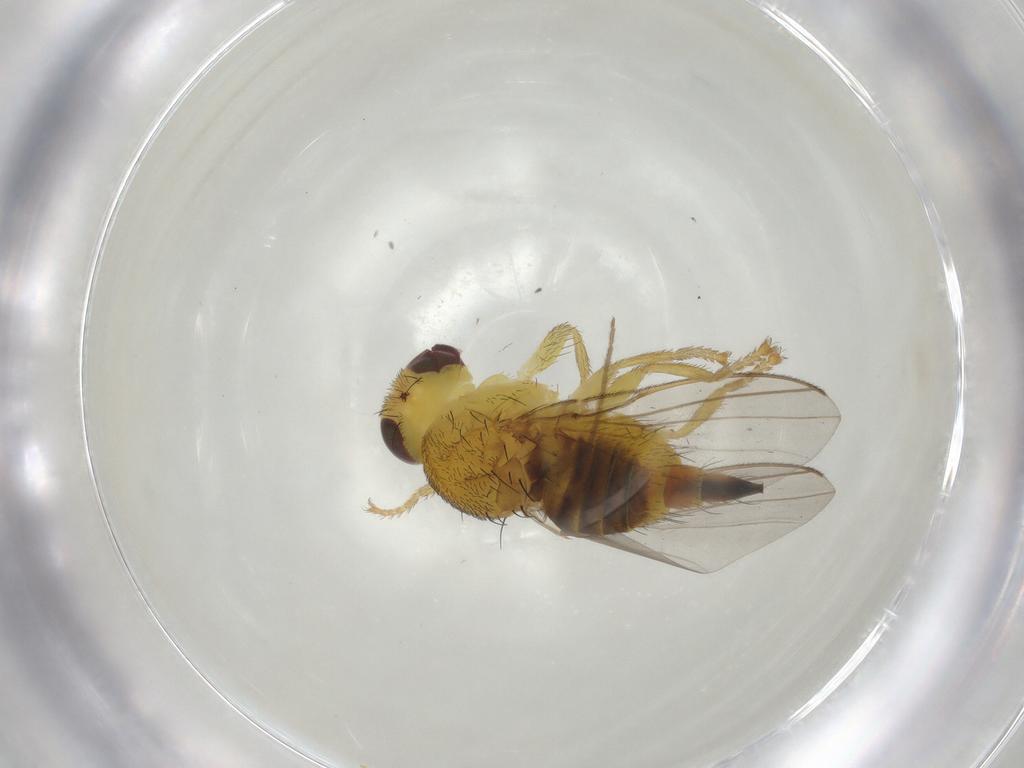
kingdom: Animalia
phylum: Arthropoda
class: Insecta
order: Diptera
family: Fergusoninidae
